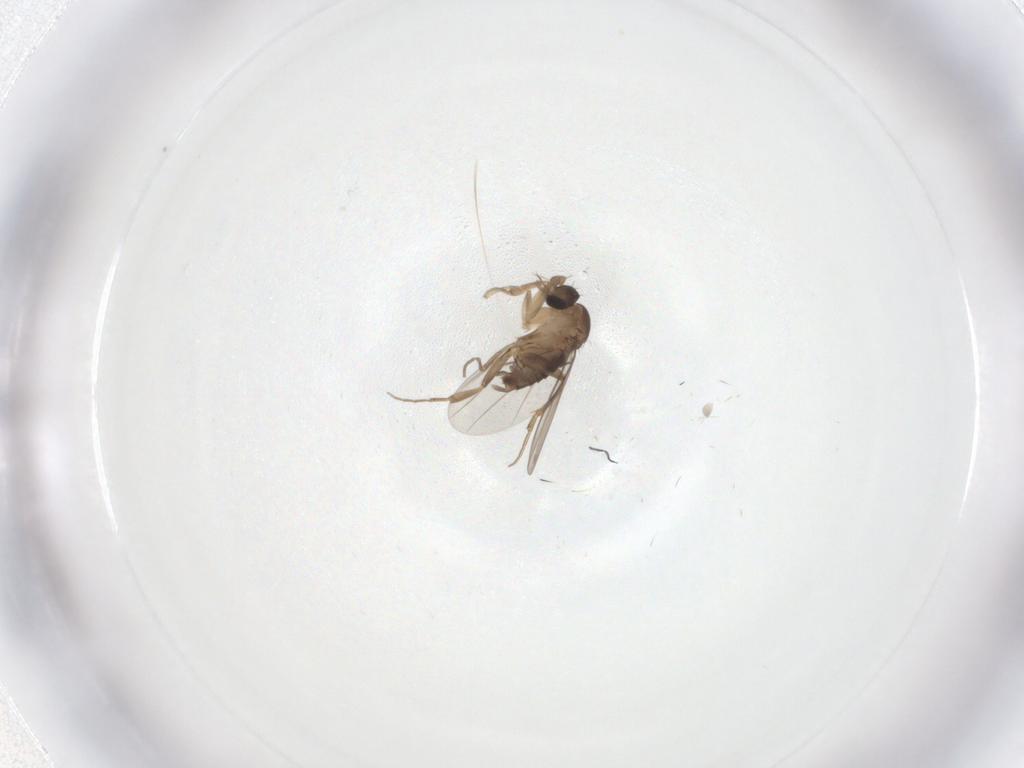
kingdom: Animalia
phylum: Arthropoda
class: Insecta
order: Diptera
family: Phoridae
